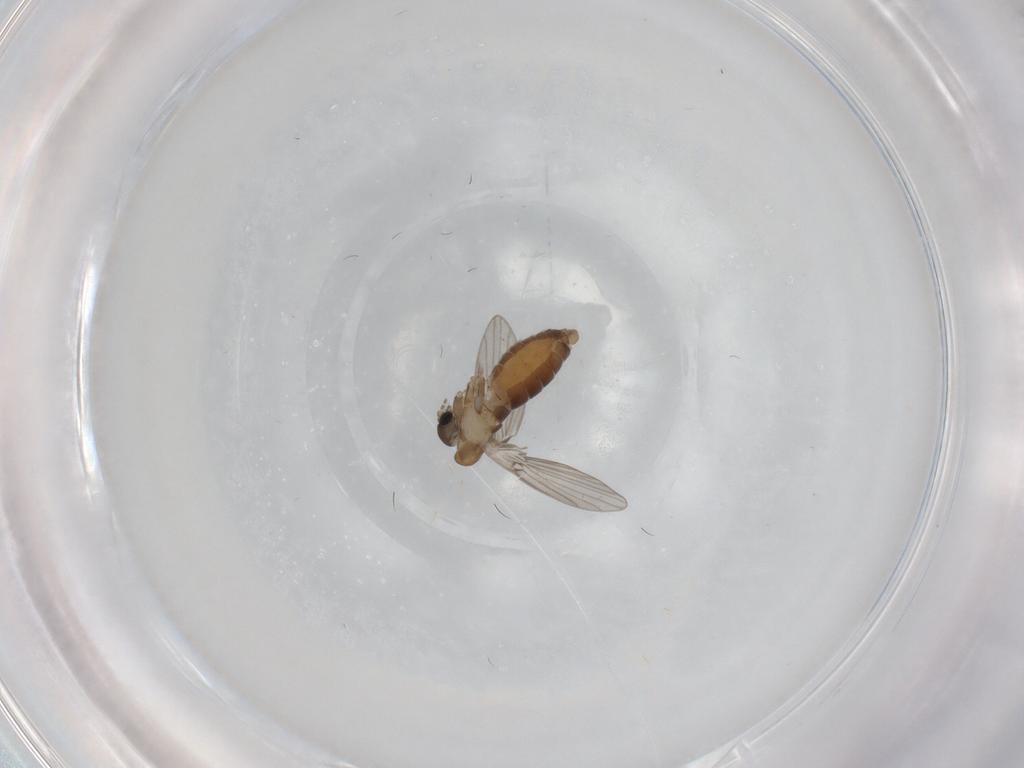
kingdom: Animalia
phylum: Arthropoda
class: Insecta
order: Diptera
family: Psychodidae
